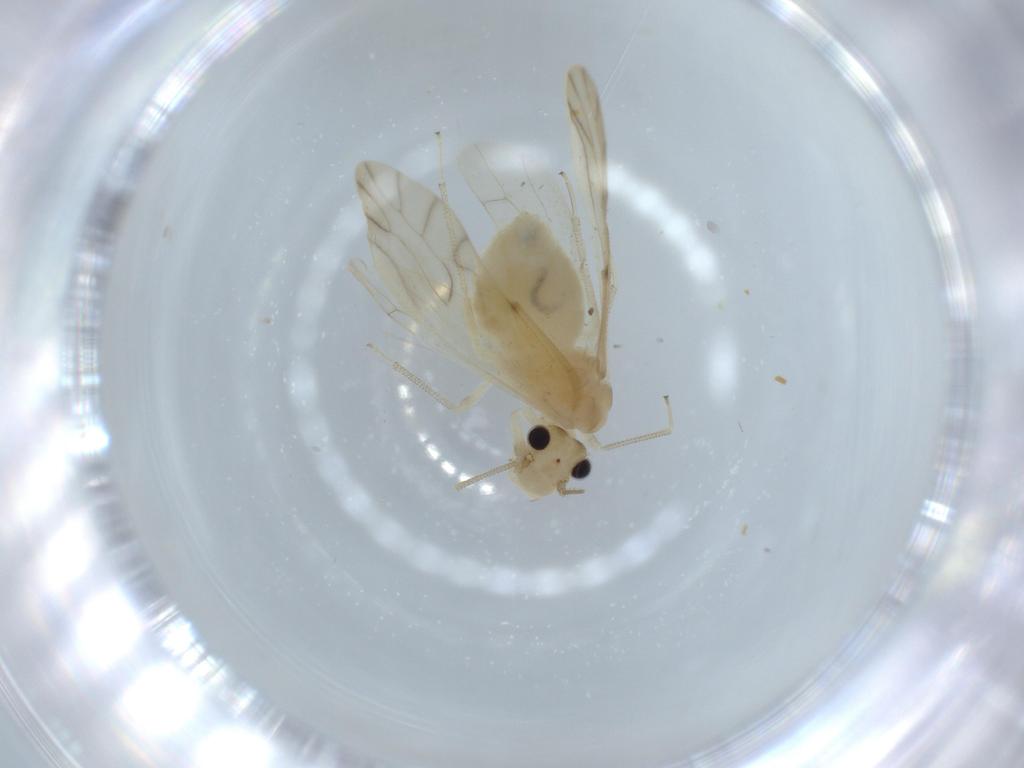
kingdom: Animalia
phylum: Arthropoda
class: Insecta
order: Psocodea
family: Caeciliusidae
